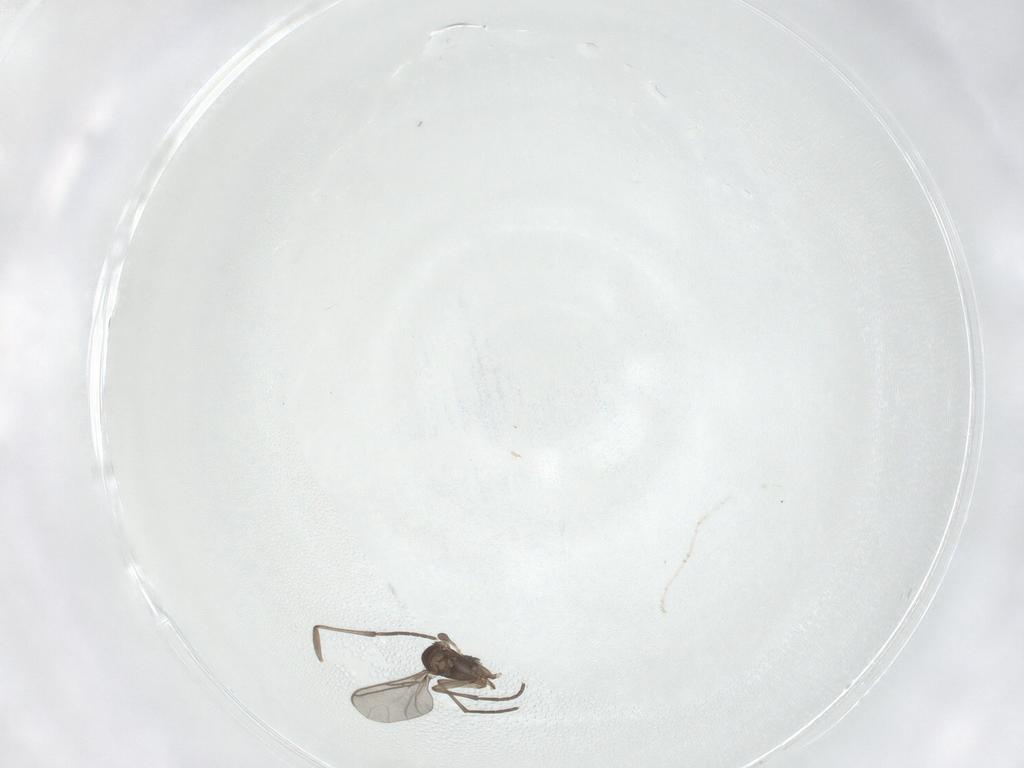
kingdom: Animalia
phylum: Arthropoda
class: Insecta
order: Diptera
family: Sciaridae
